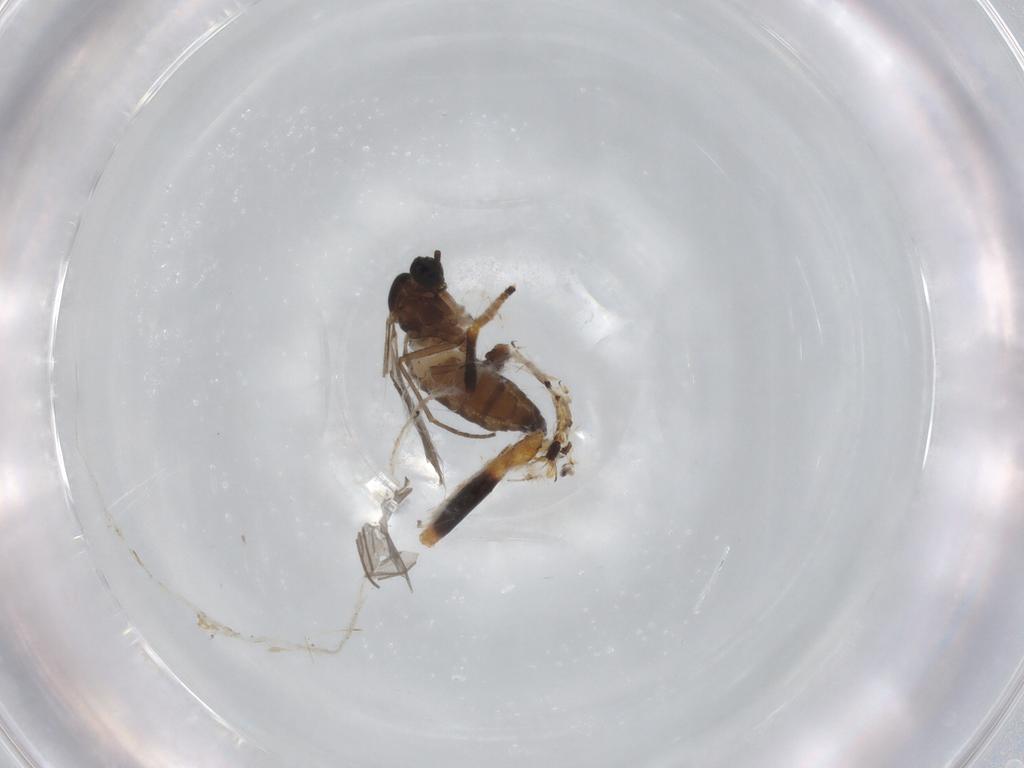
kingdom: Animalia
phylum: Arthropoda
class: Insecta
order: Diptera
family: Sciaridae
